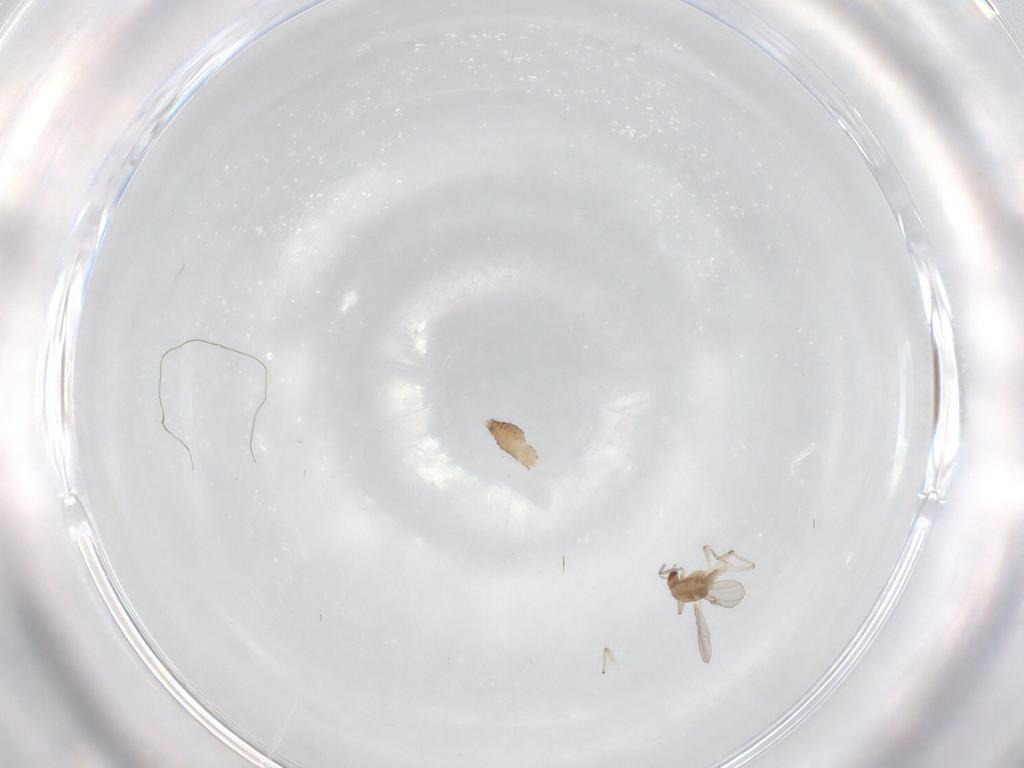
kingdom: Animalia
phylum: Arthropoda
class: Insecta
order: Diptera
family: Chironomidae
